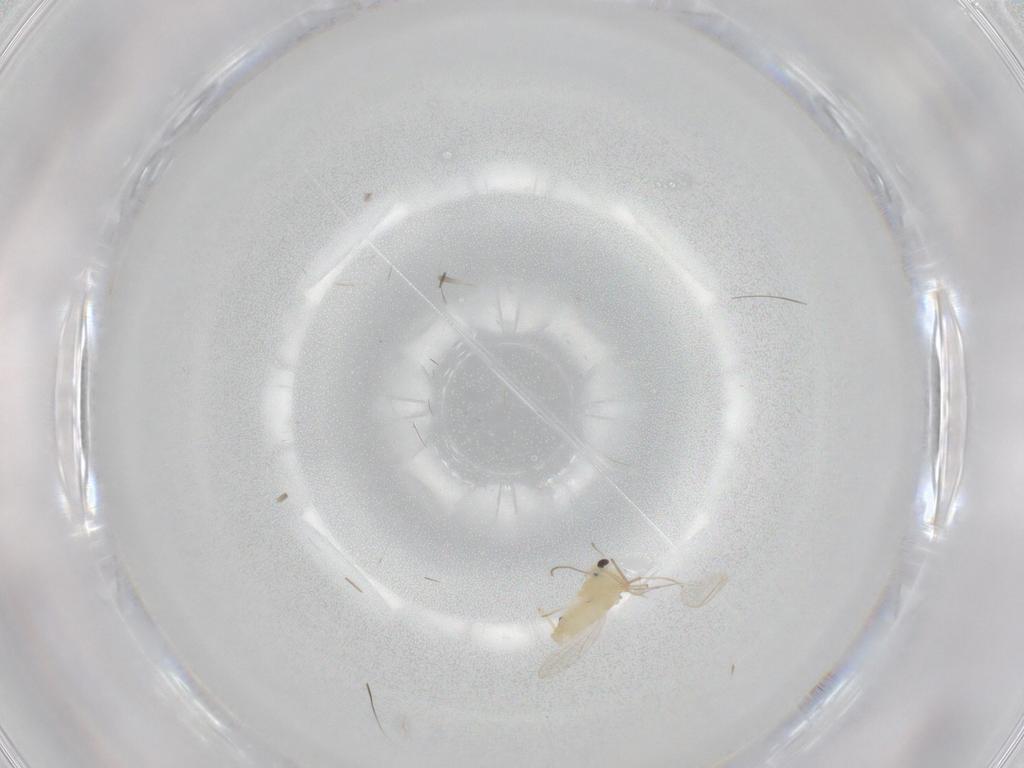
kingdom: Animalia
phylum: Arthropoda
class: Insecta
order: Diptera
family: Chironomidae
